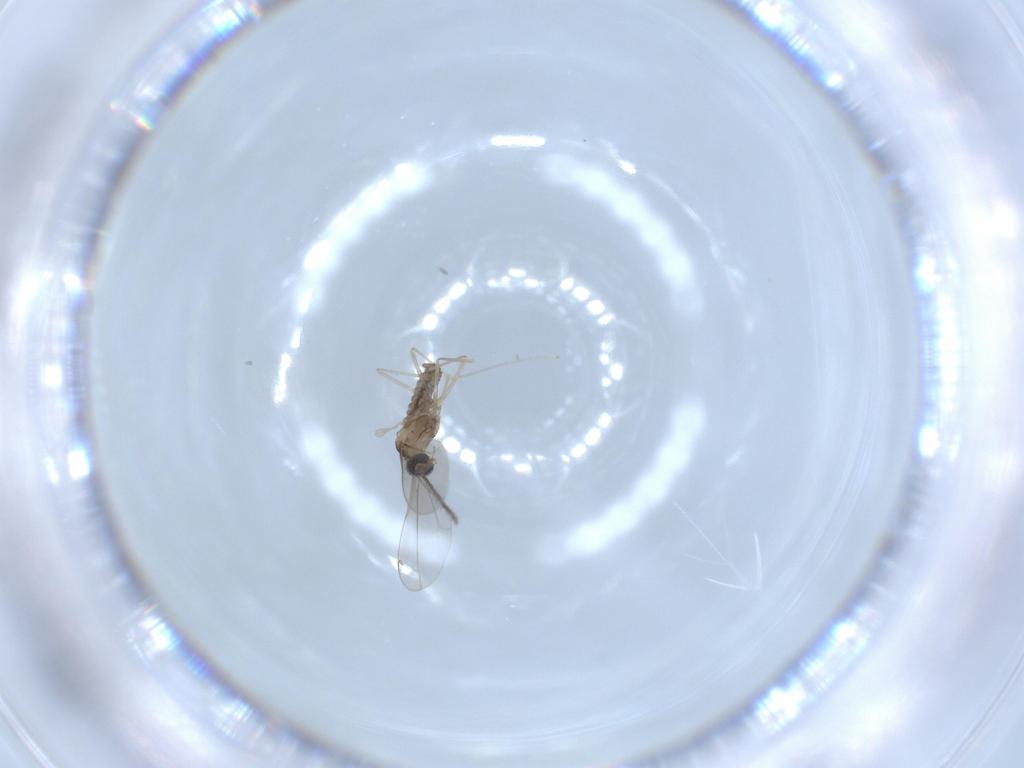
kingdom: Animalia
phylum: Arthropoda
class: Insecta
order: Diptera
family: Cecidomyiidae
